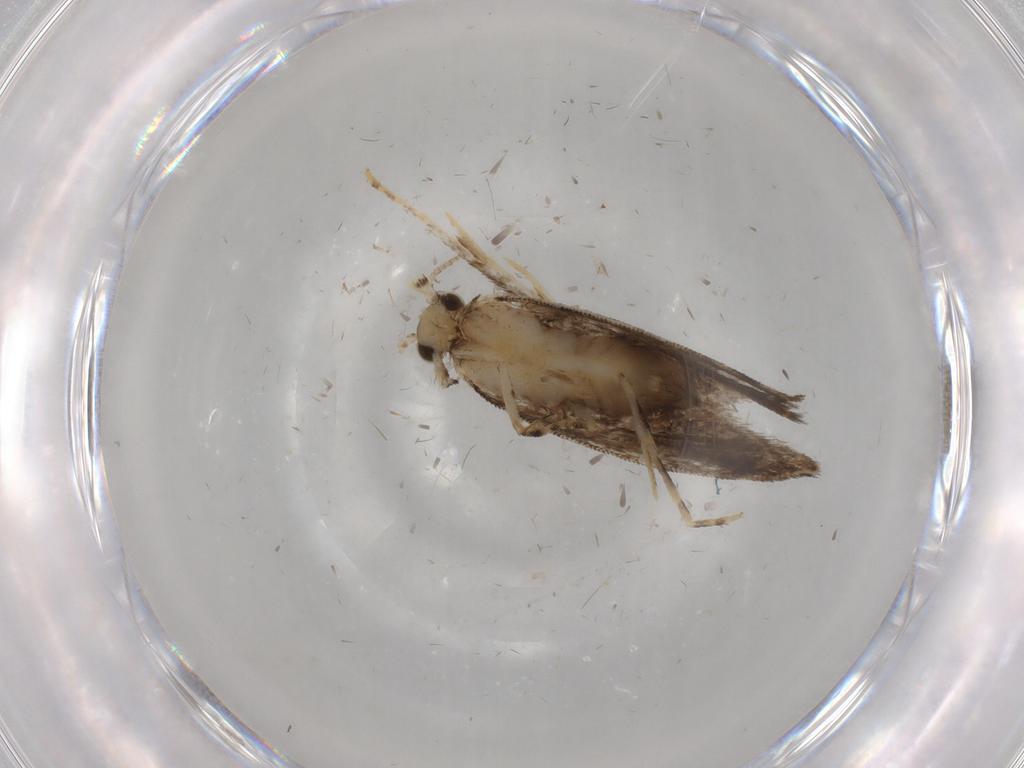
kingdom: Animalia
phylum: Arthropoda
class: Insecta
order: Lepidoptera
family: Tineidae
